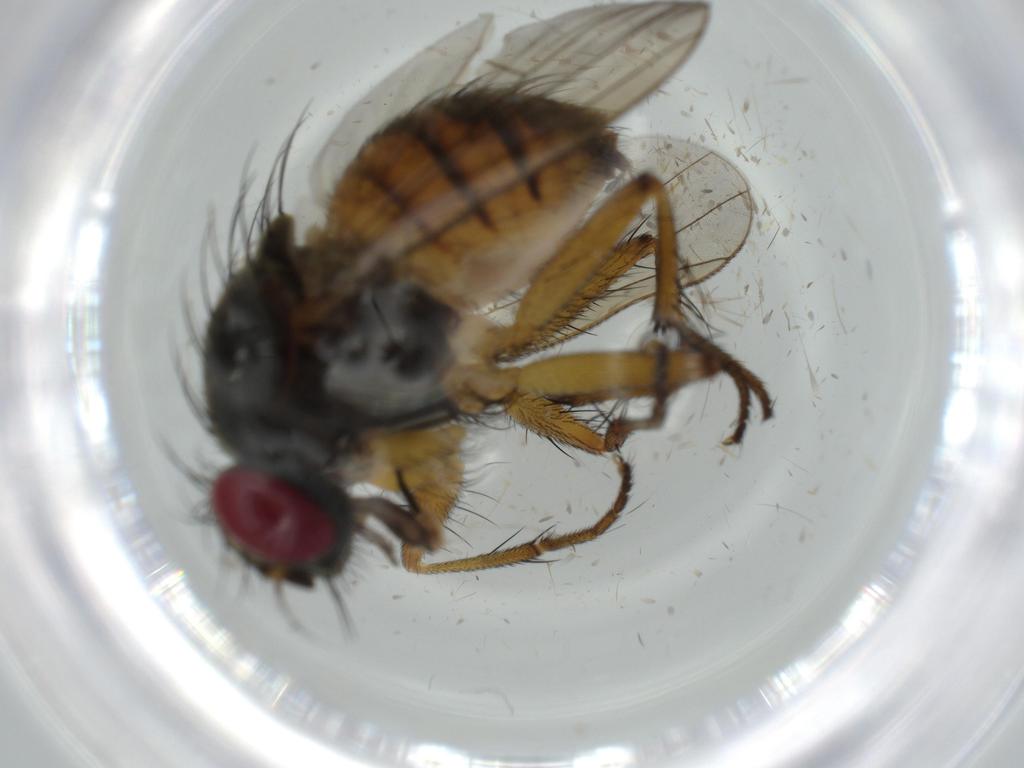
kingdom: Animalia
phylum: Arthropoda
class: Insecta
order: Diptera
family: Muscidae
